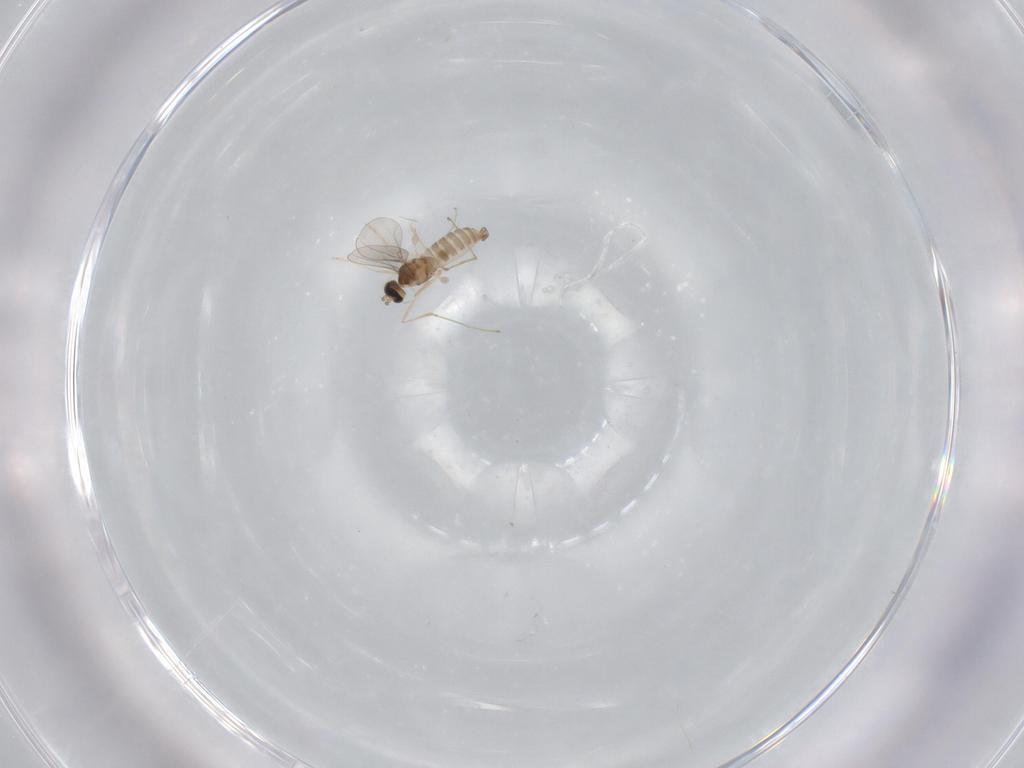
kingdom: Animalia
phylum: Arthropoda
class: Insecta
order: Diptera
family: Cecidomyiidae
